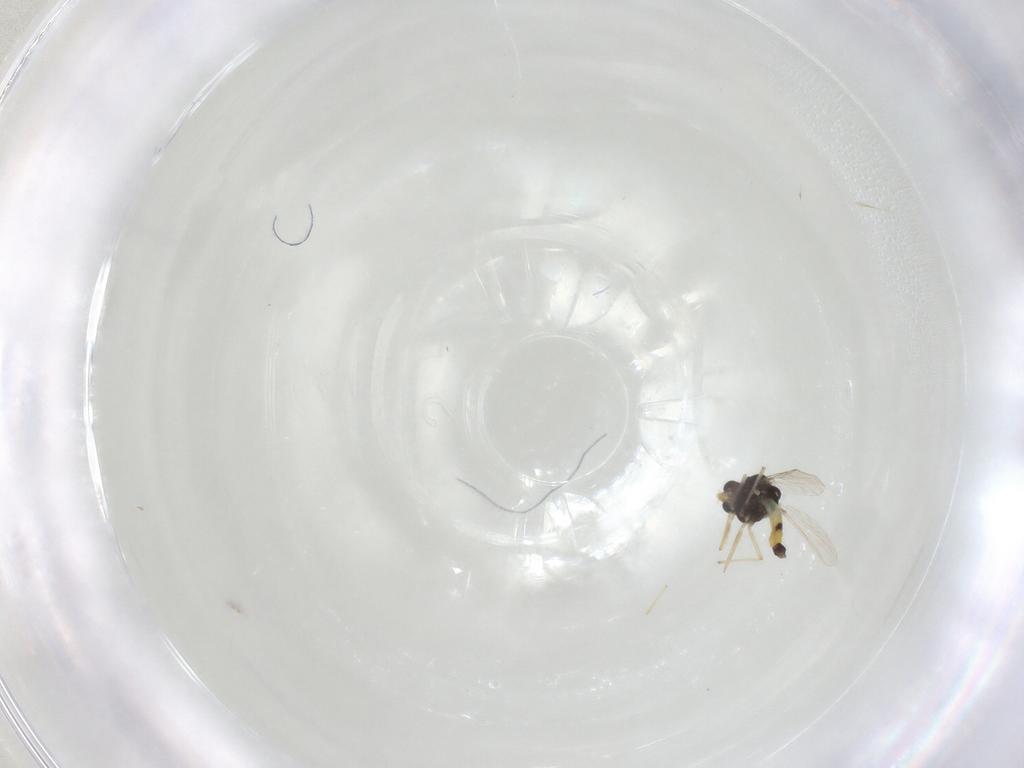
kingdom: Animalia
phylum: Arthropoda
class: Insecta
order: Diptera
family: Chironomidae
